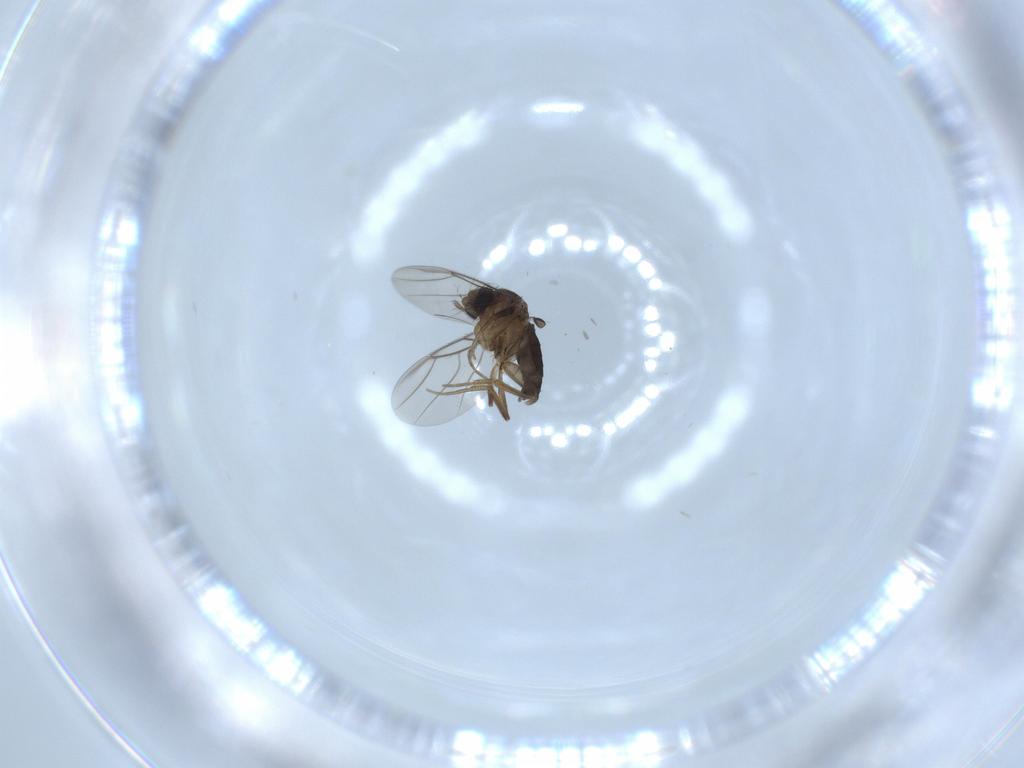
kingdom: Animalia
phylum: Arthropoda
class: Insecta
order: Diptera
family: Phoridae
